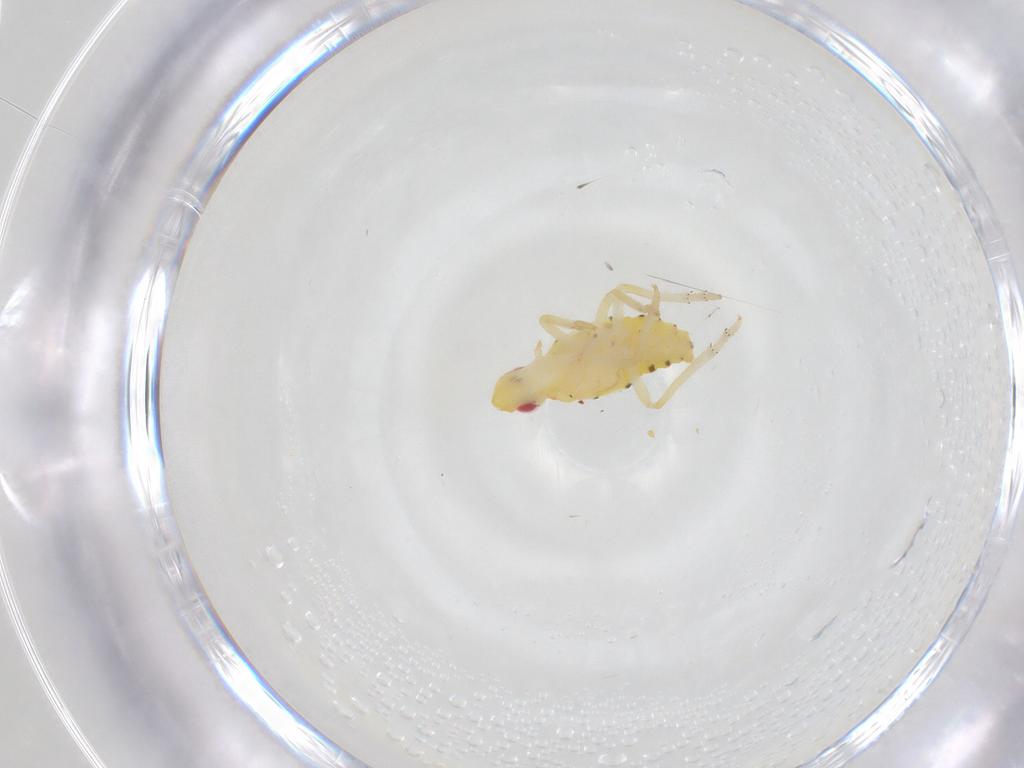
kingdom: Animalia
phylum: Arthropoda
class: Insecta
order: Hemiptera
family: Tropiduchidae
